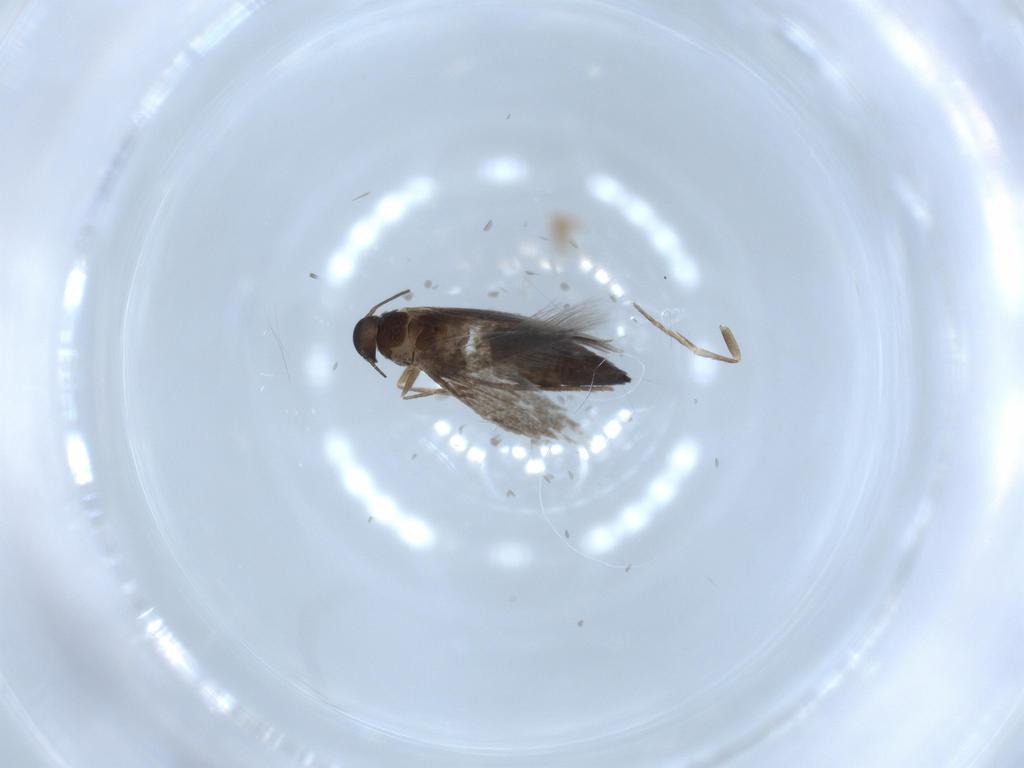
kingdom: Animalia
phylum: Arthropoda
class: Insecta
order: Lepidoptera
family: Heliozelidae
